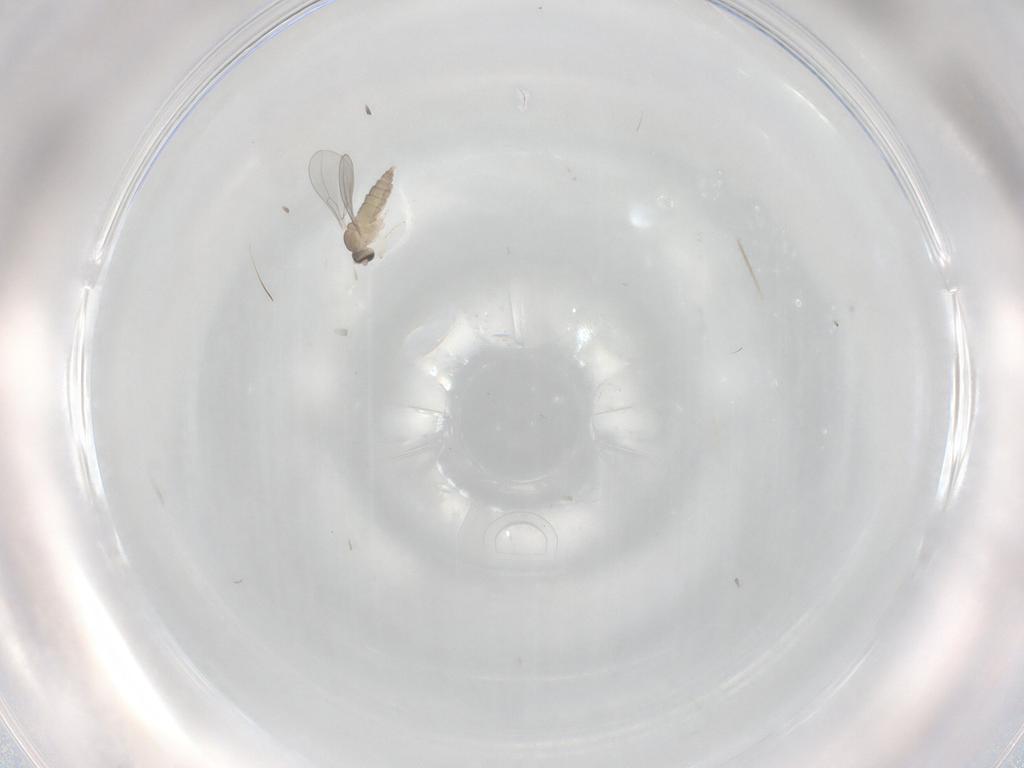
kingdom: Animalia
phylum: Arthropoda
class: Insecta
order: Diptera
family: Cecidomyiidae
